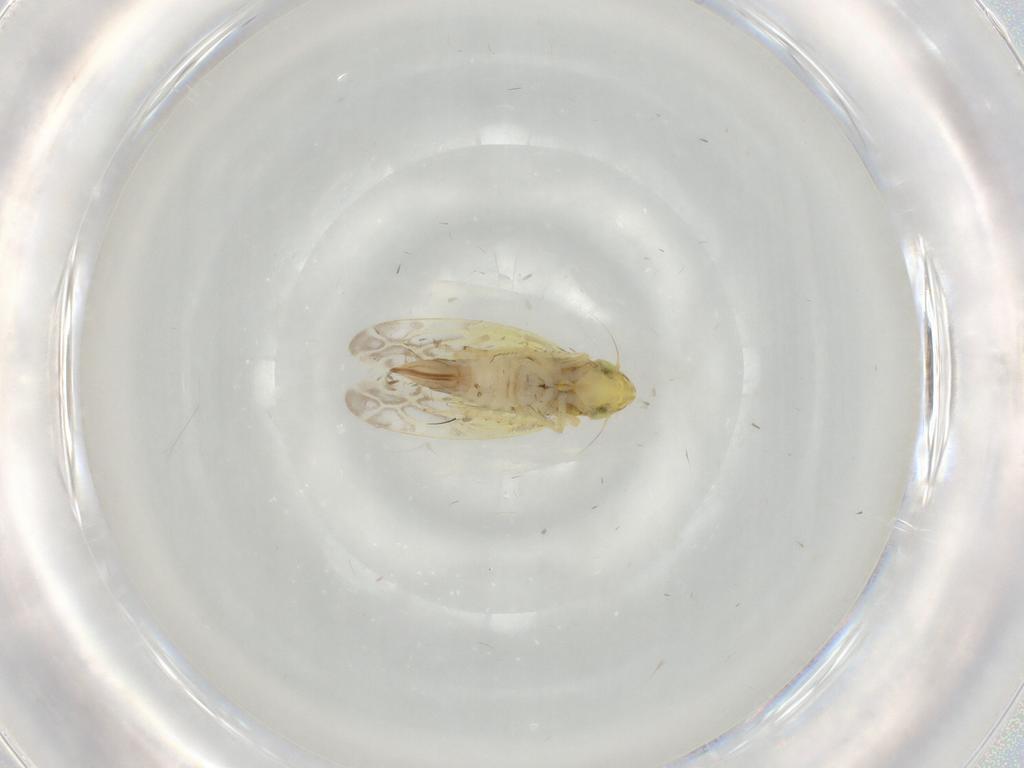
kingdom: Animalia
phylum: Arthropoda
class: Insecta
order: Hemiptera
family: Cicadellidae
